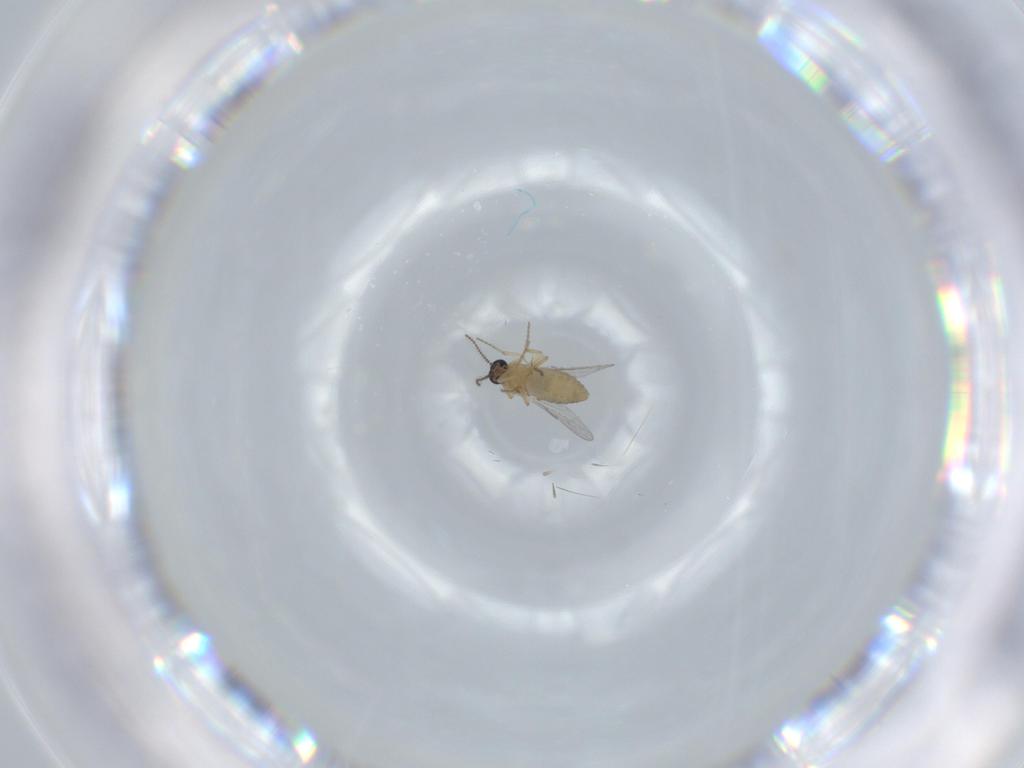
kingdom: Animalia
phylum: Arthropoda
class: Insecta
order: Diptera
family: Ceratopogonidae
